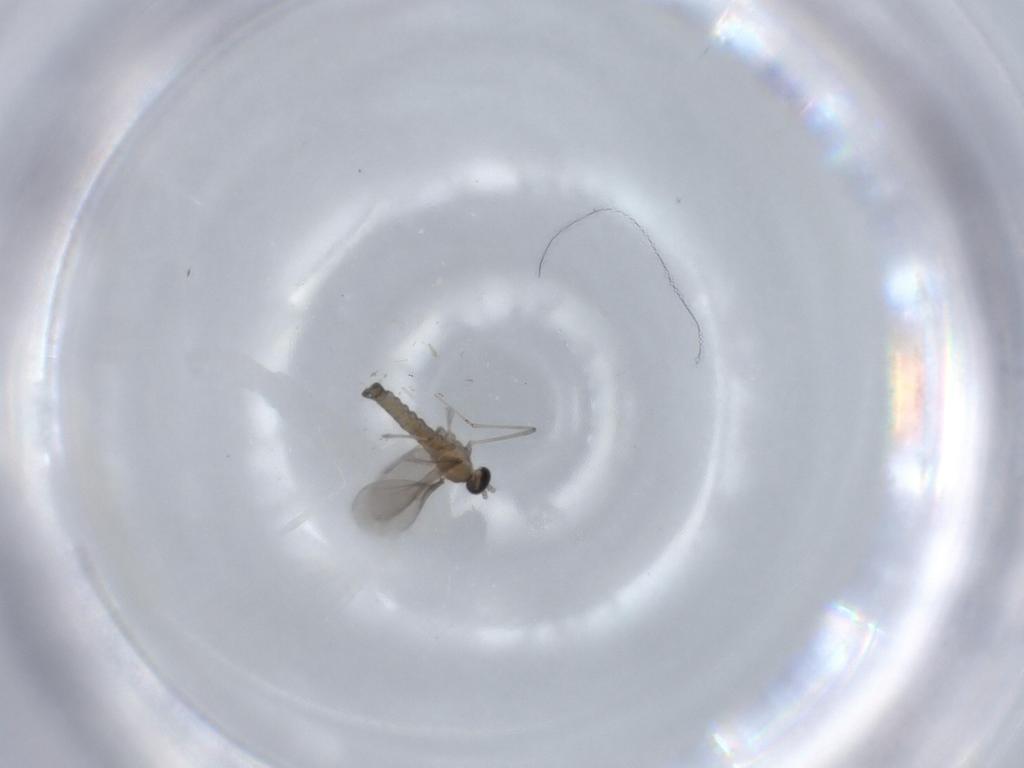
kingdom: Animalia
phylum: Arthropoda
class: Insecta
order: Diptera
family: Cecidomyiidae
